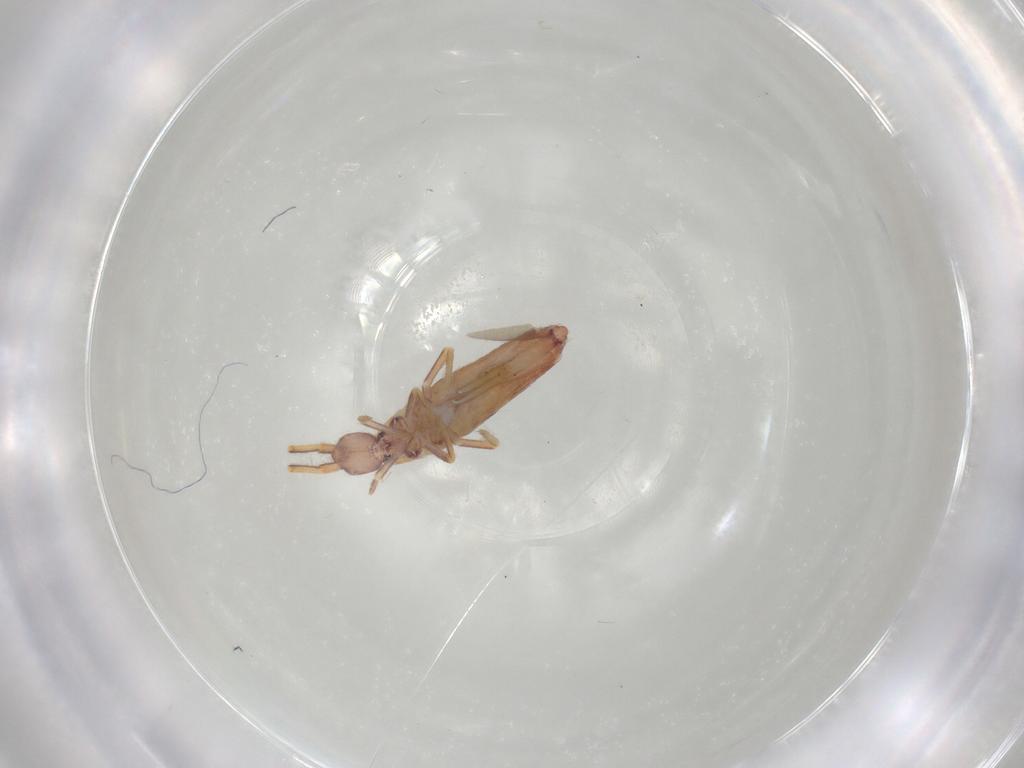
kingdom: Animalia
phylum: Arthropoda
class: Collembola
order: Entomobryomorpha
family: Entomobryidae
